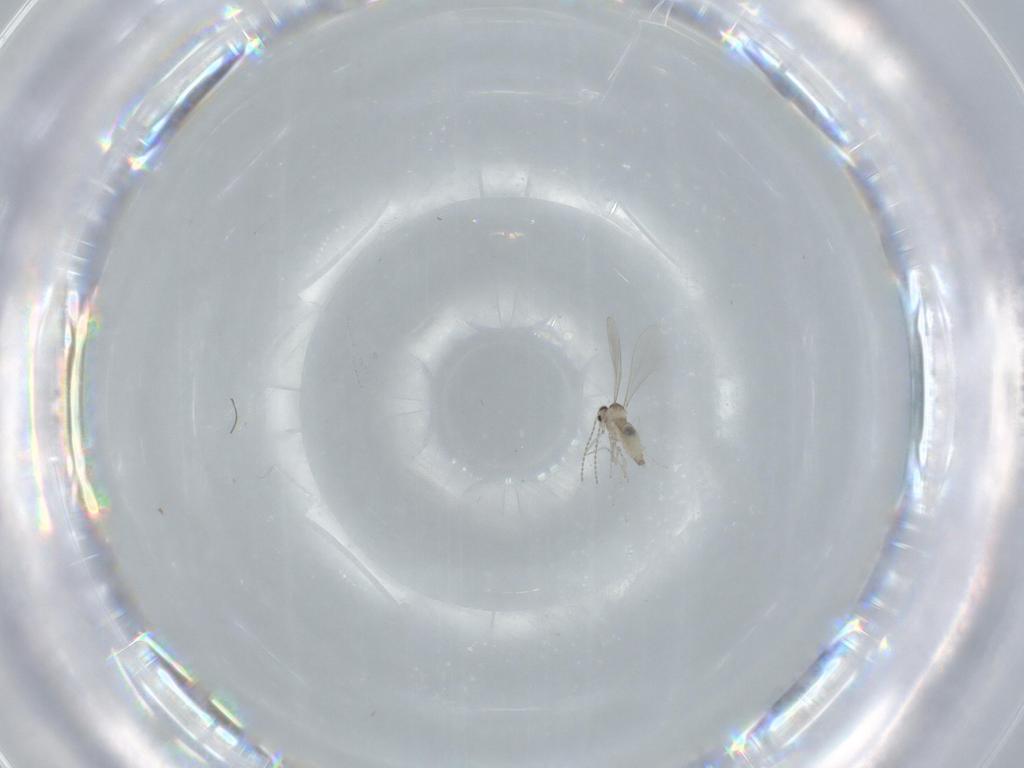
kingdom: Animalia
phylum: Arthropoda
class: Insecta
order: Diptera
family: Cecidomyiidae
